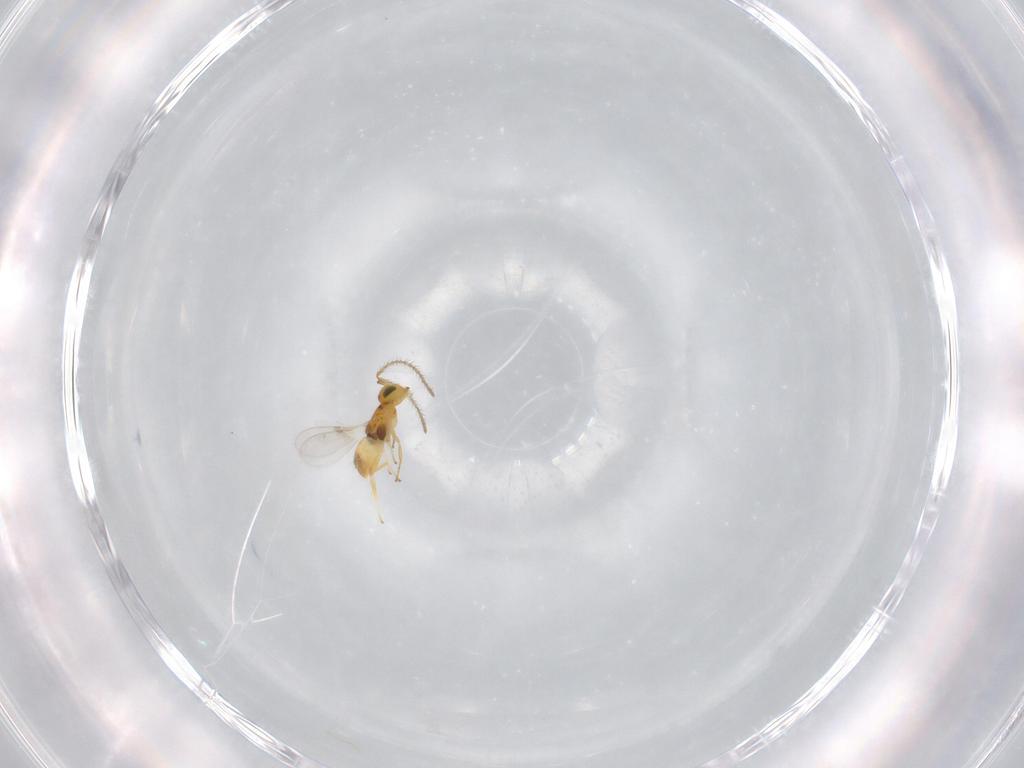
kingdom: Animalia
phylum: Arthropoda
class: Insecta
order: Hymenoptera
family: Encyrtidae
